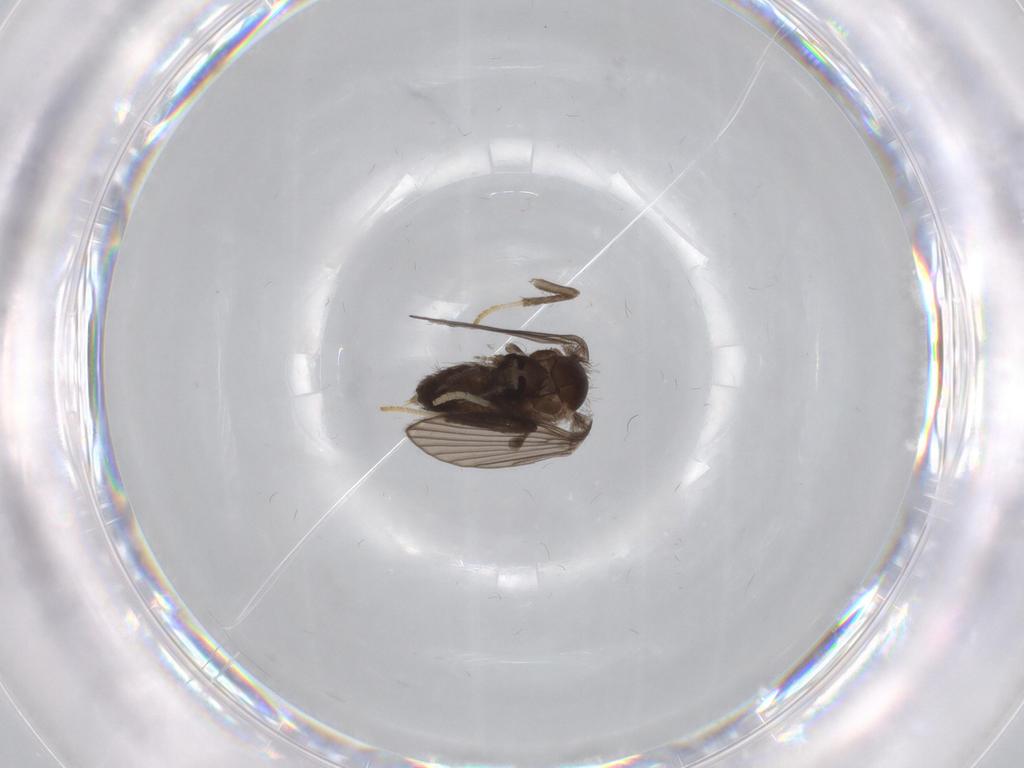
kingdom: Animalia
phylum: Arthropoda
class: Insecta
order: Diptera
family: Psychodidae
